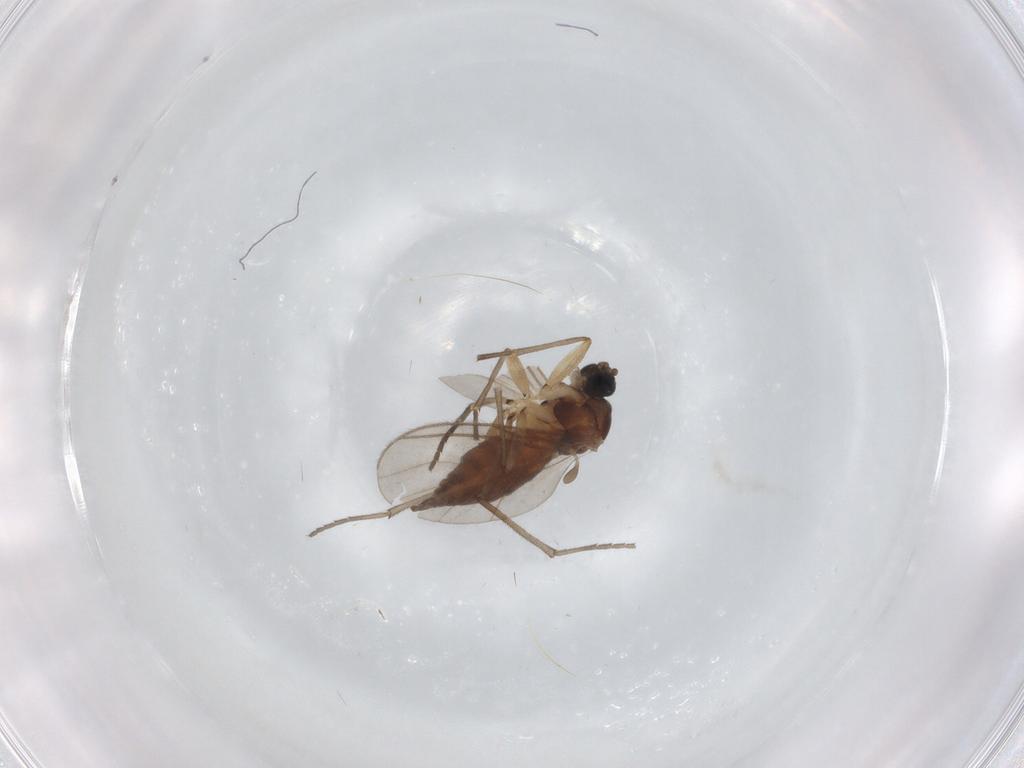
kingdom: Animalia
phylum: Arthropoda
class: Insecta
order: Diptera
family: Sciaridae
